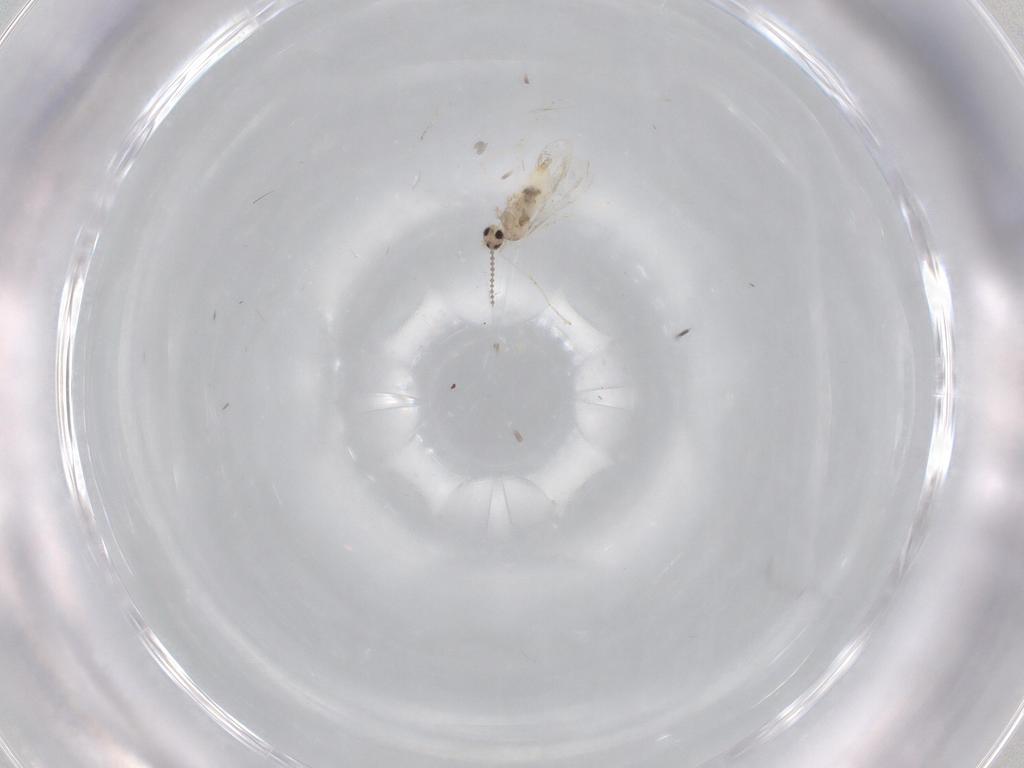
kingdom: Animalia
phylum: Arthropoda
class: Insecta
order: Diptera
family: Cecidomyiidae
